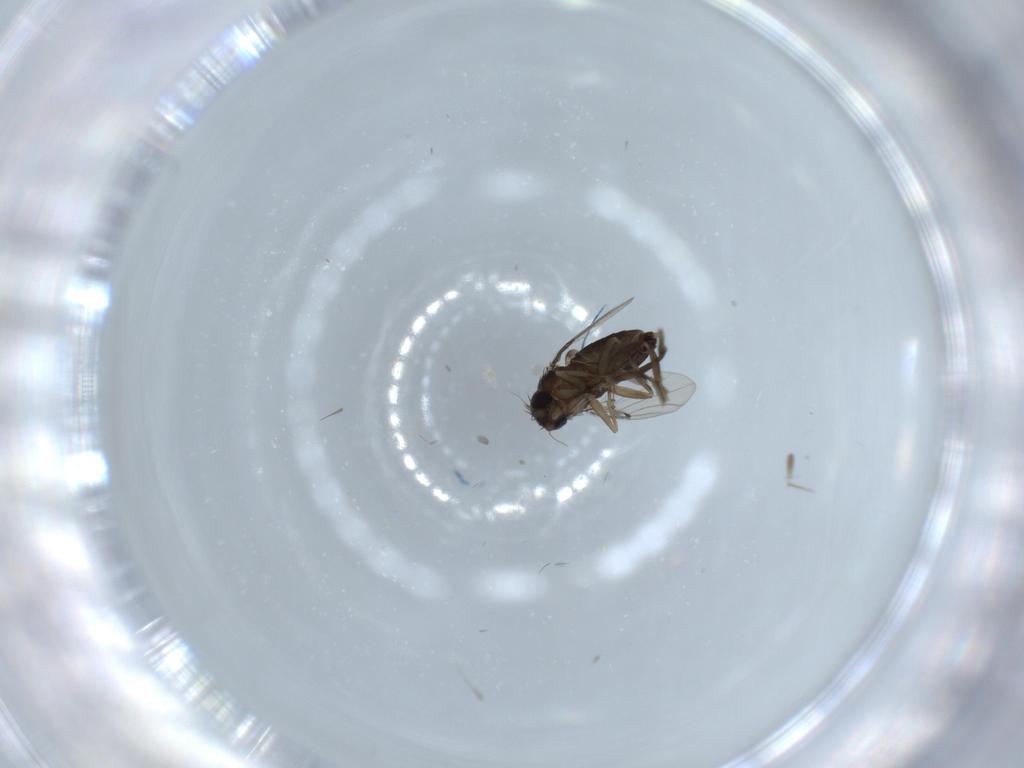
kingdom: Animalia
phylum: Arthropoda
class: Insecta
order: Diptera
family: Phoridae
